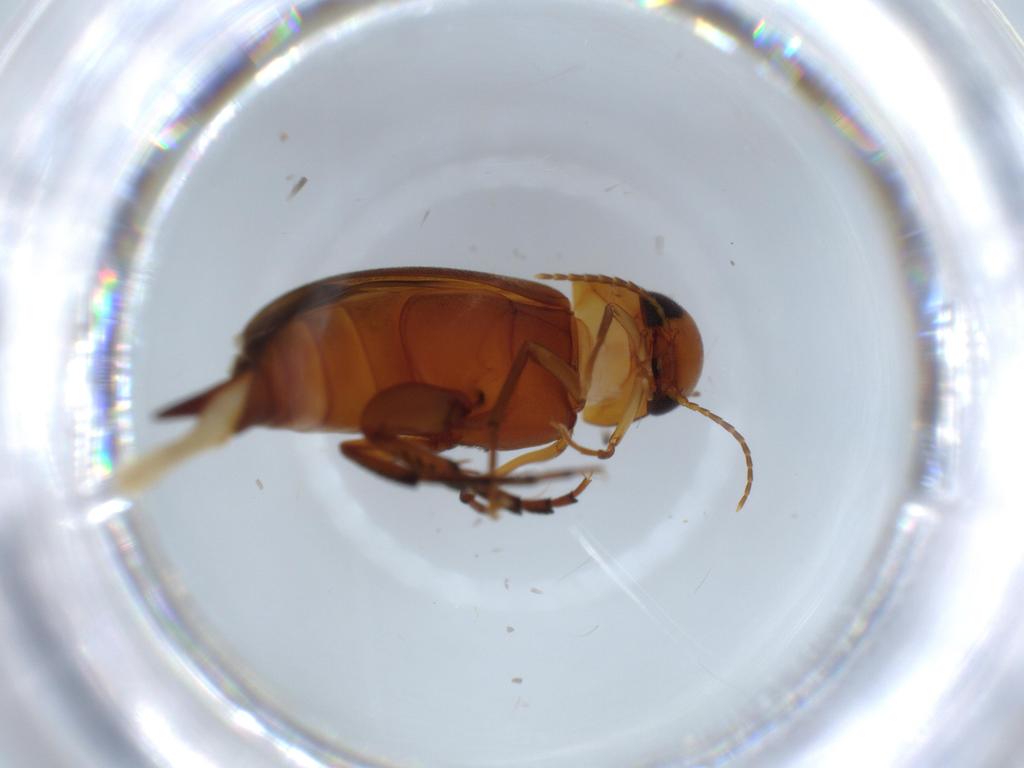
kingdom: Animalia
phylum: Arthropoda
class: Insecta
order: Coleoptera
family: Mordellidae
